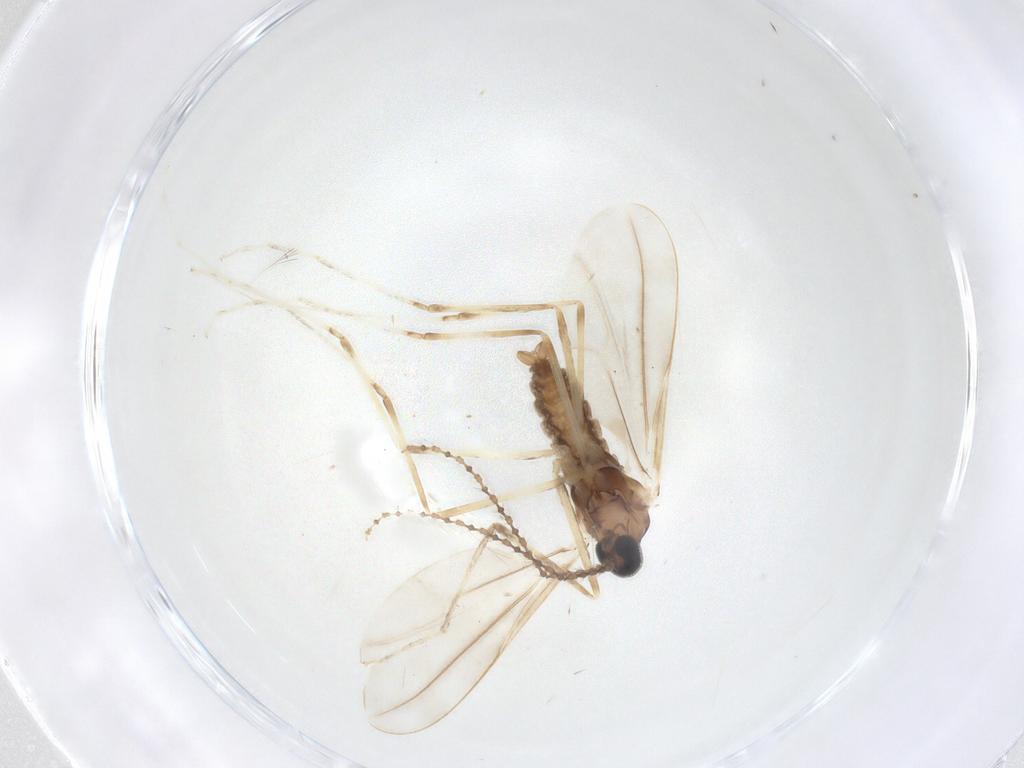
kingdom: Animalia
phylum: Arthropoda
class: Insecta
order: Diptera
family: Cecidomyiidae
